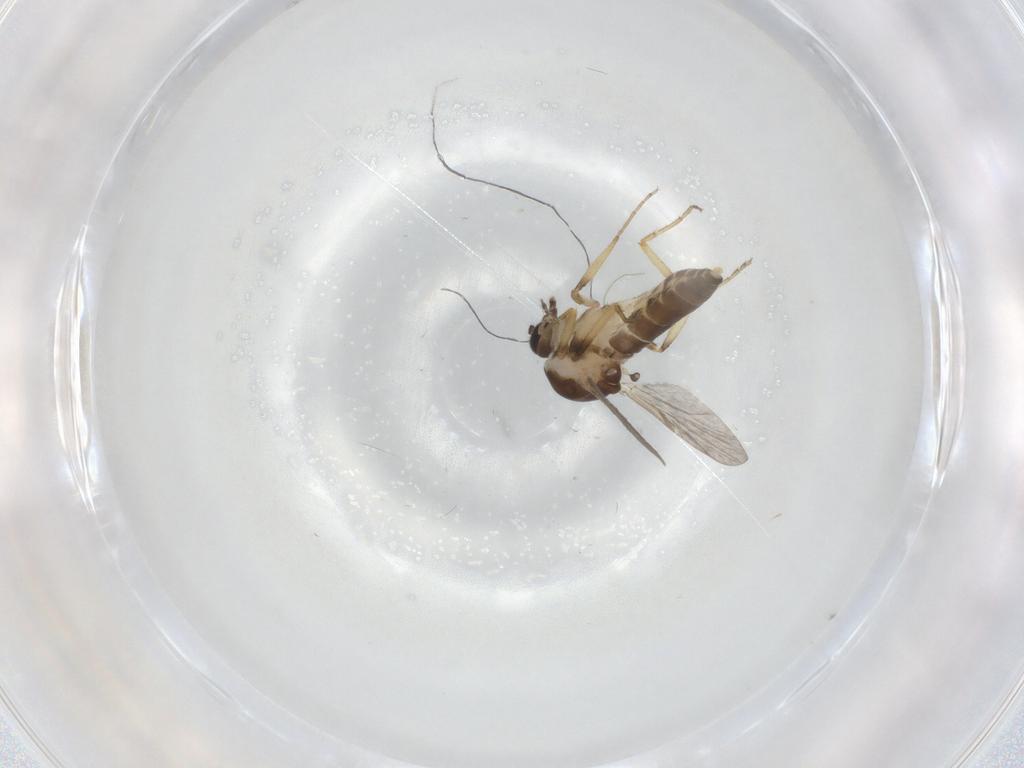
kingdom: Animalia
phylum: Arthropoda
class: Insecta
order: Diptera
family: Ceratopogonidae
